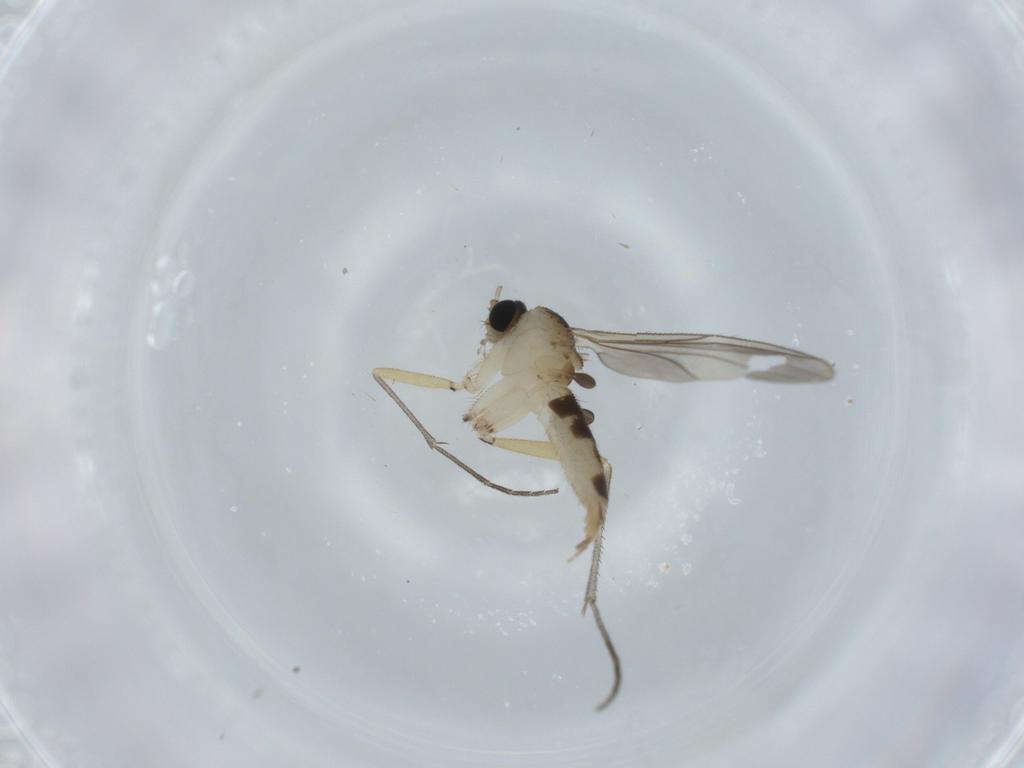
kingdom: Animalia
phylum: Arthropoda
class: Insecta
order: Diptera
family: Sciaridae
